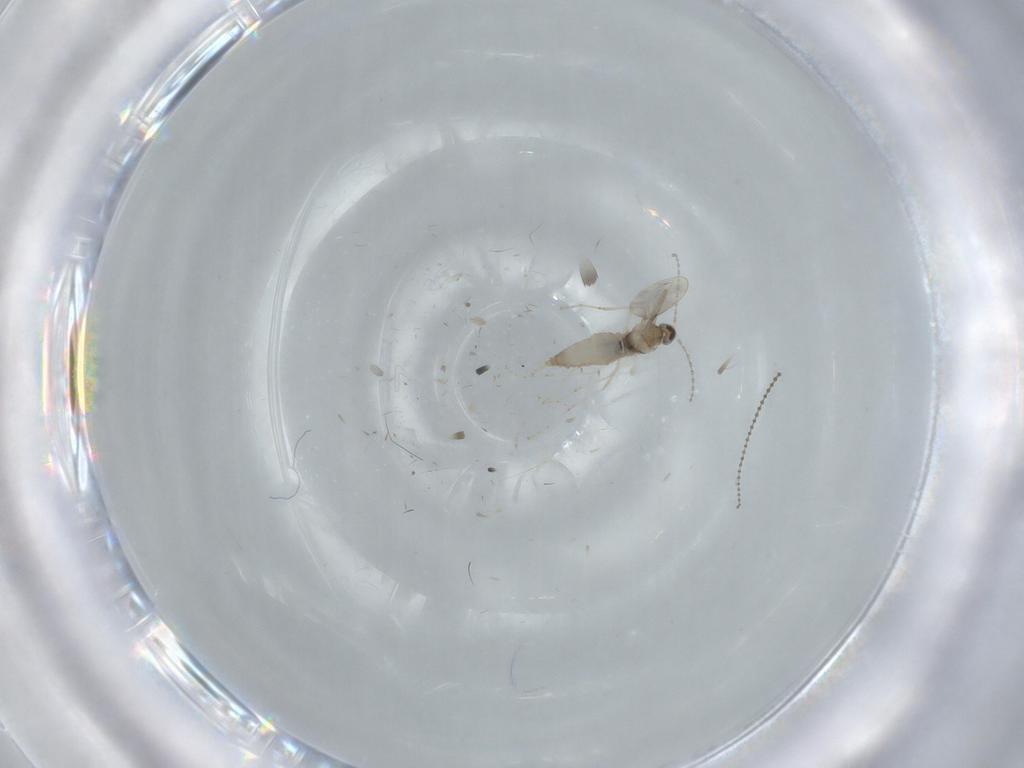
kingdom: Animalia
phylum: Arthropoda
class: Insecta
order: Diptera
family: Cecidomyiidae
